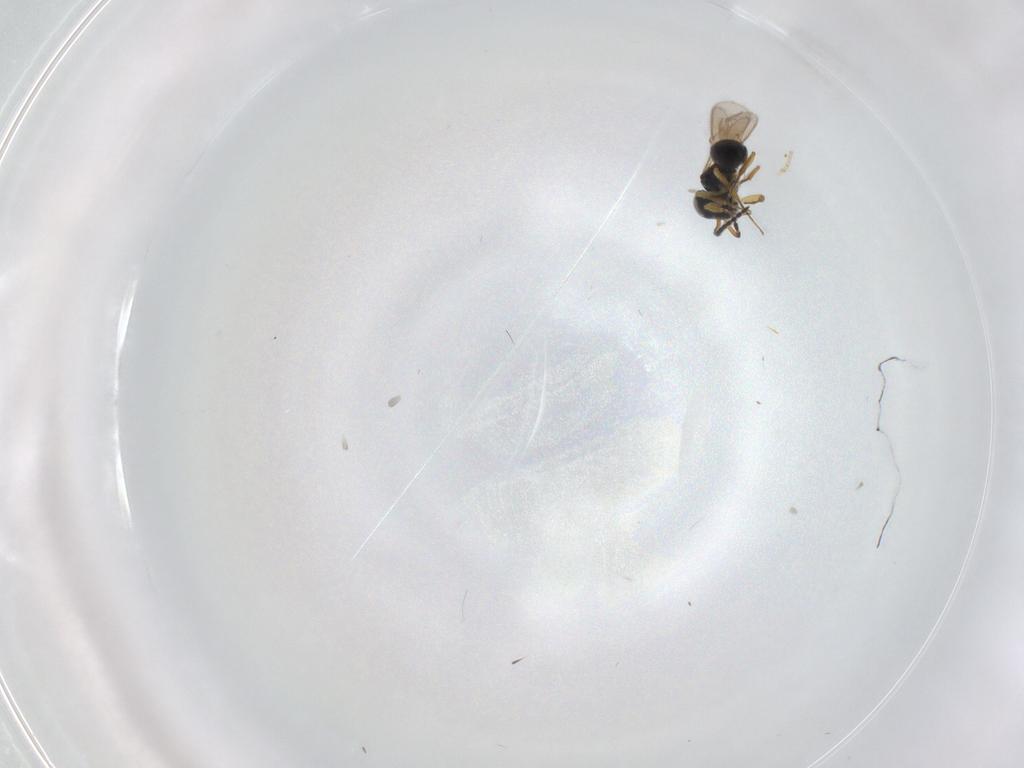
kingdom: Animalia
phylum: Arthropoda
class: Insecta
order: Hymenoptera
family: Scelionidae
